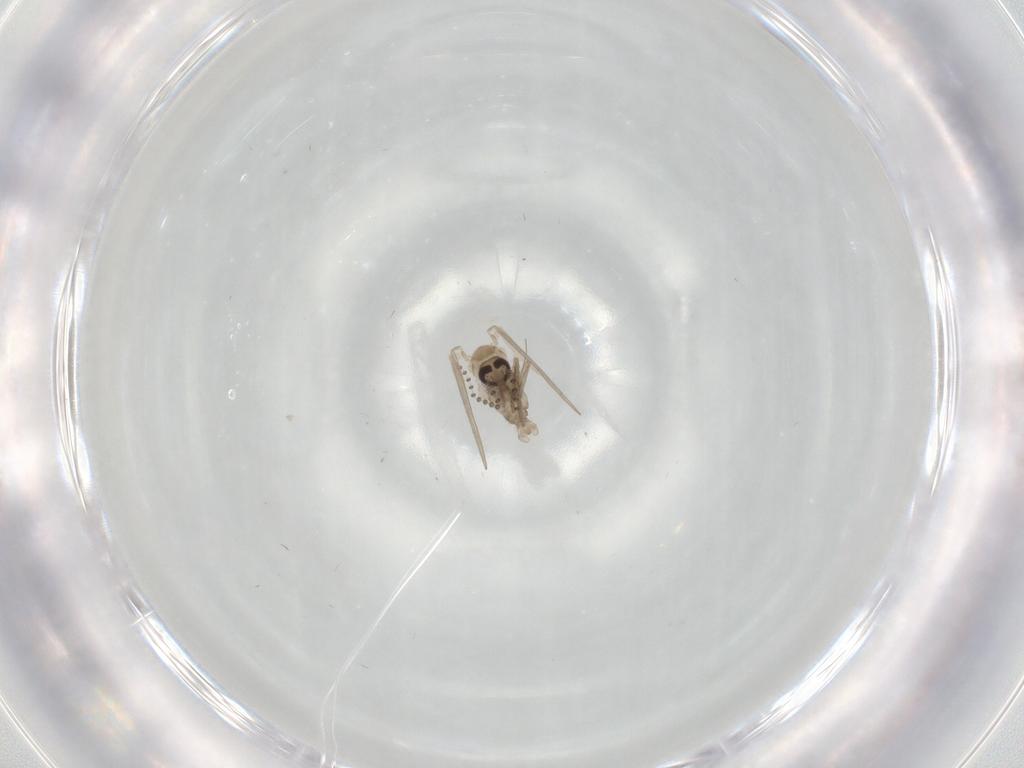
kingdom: Animalia
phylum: Arthropoda
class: Insecta
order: Diptera
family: Psychodidae
